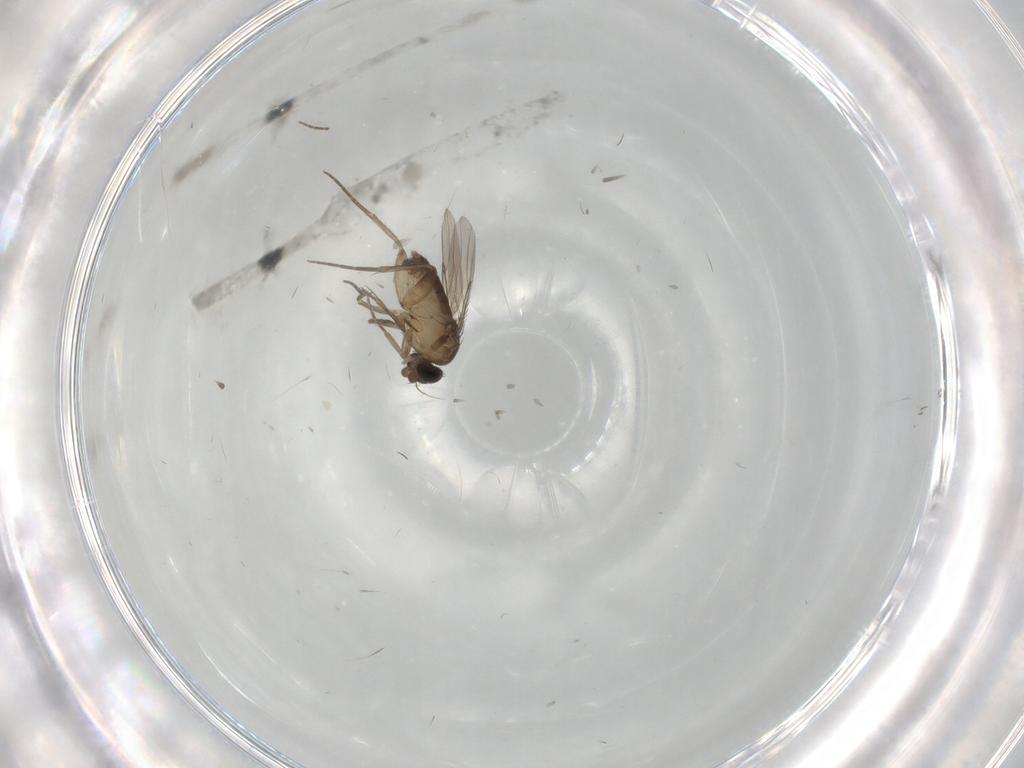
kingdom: Animalia
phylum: Arthropoda
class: Insecta
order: Diptera
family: Phoridae
